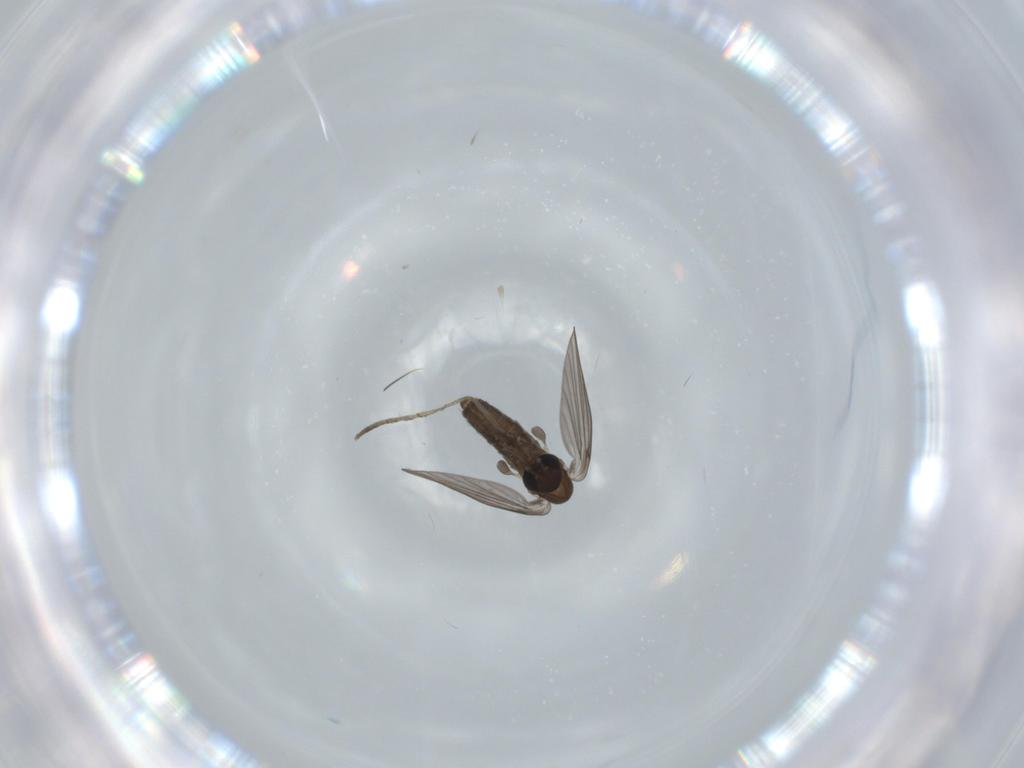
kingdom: Animalia
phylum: Arthropoda
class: Insecta
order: Diptera
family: Psychodidae
